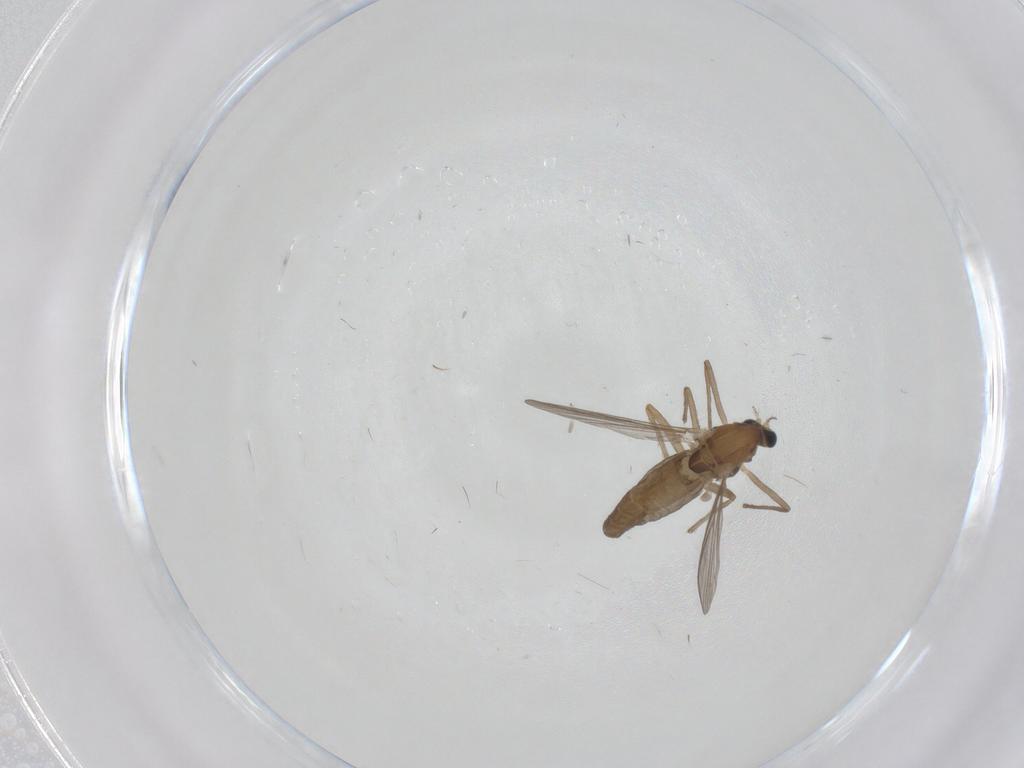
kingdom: Animalia
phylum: Arthropoda
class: Insecta
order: Diptera
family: Chironomidae
